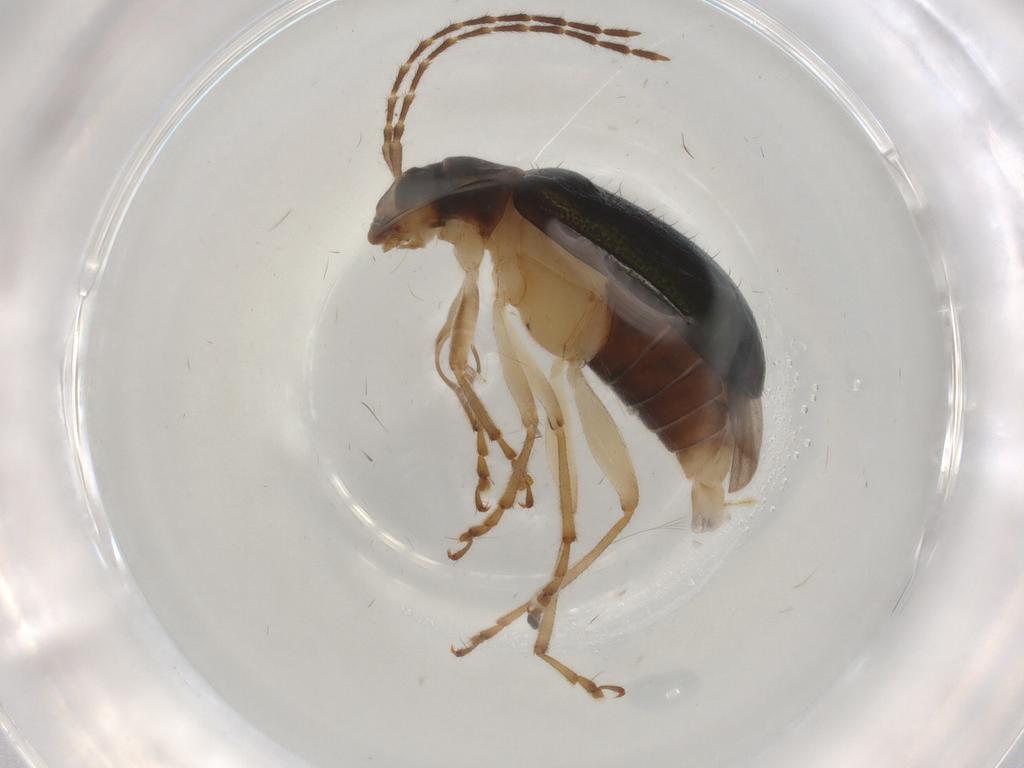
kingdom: Animalia
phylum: Arthropoda
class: Insecta
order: Coleoptera
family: Chrysomelidae
